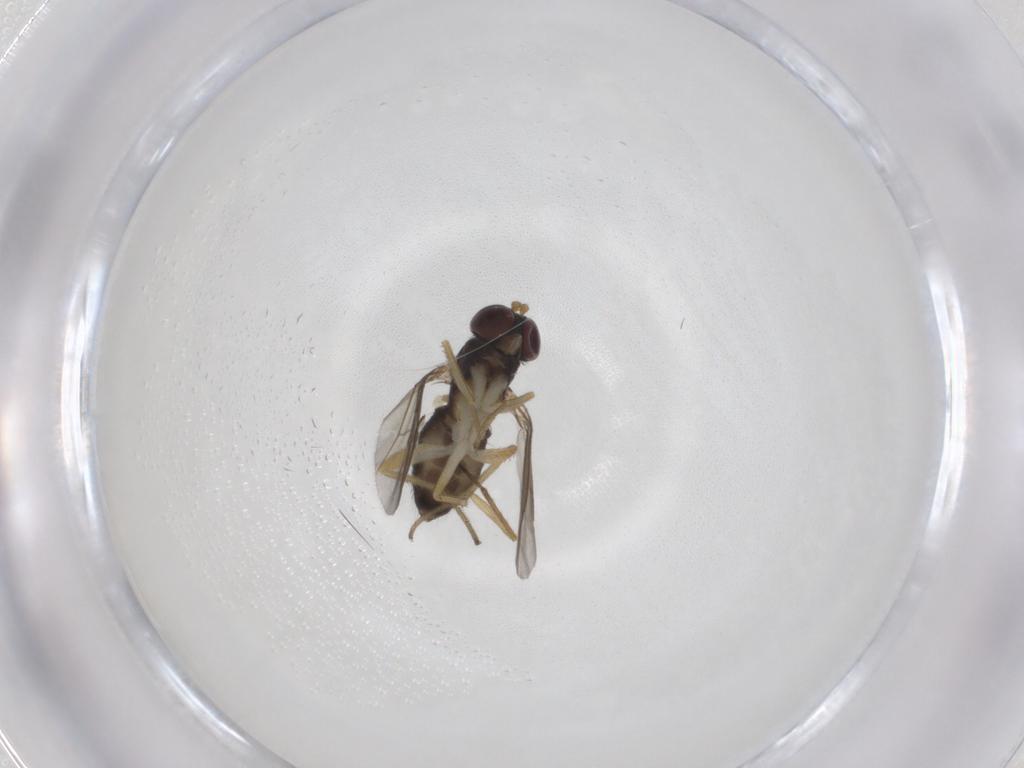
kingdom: Animalia
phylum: Arthropoda
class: Insecta
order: Diptera
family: Dolichopodidae
